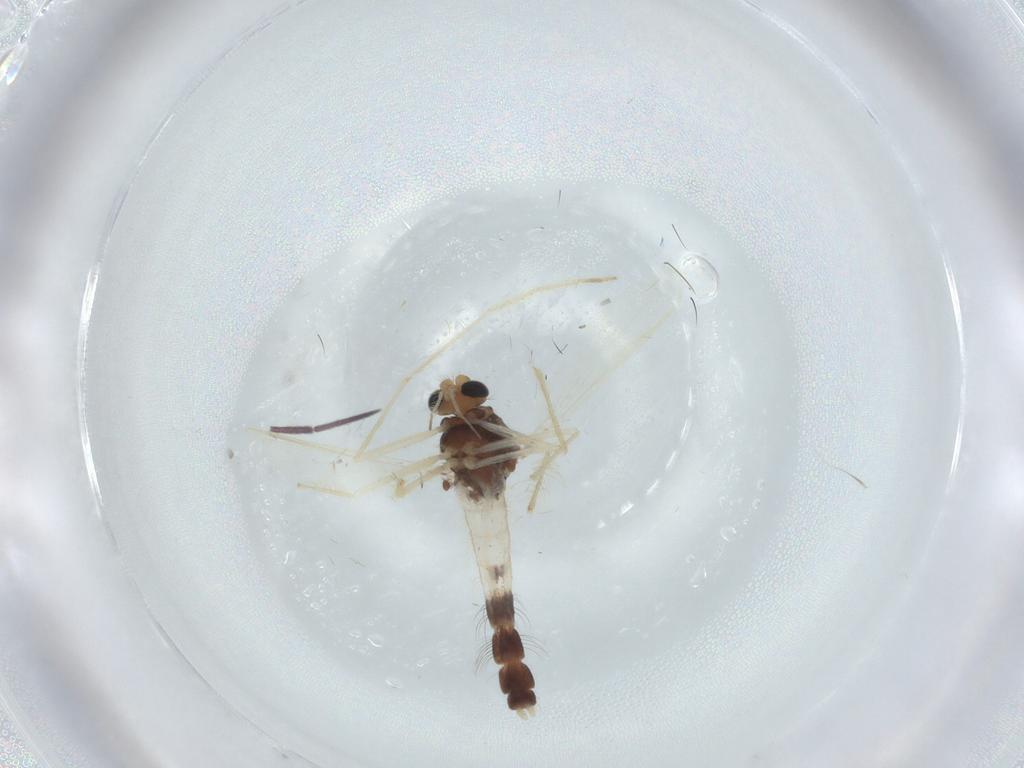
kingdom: Animalia
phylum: Arthropoda
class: Insecta
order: Diptera
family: Chironomidae
